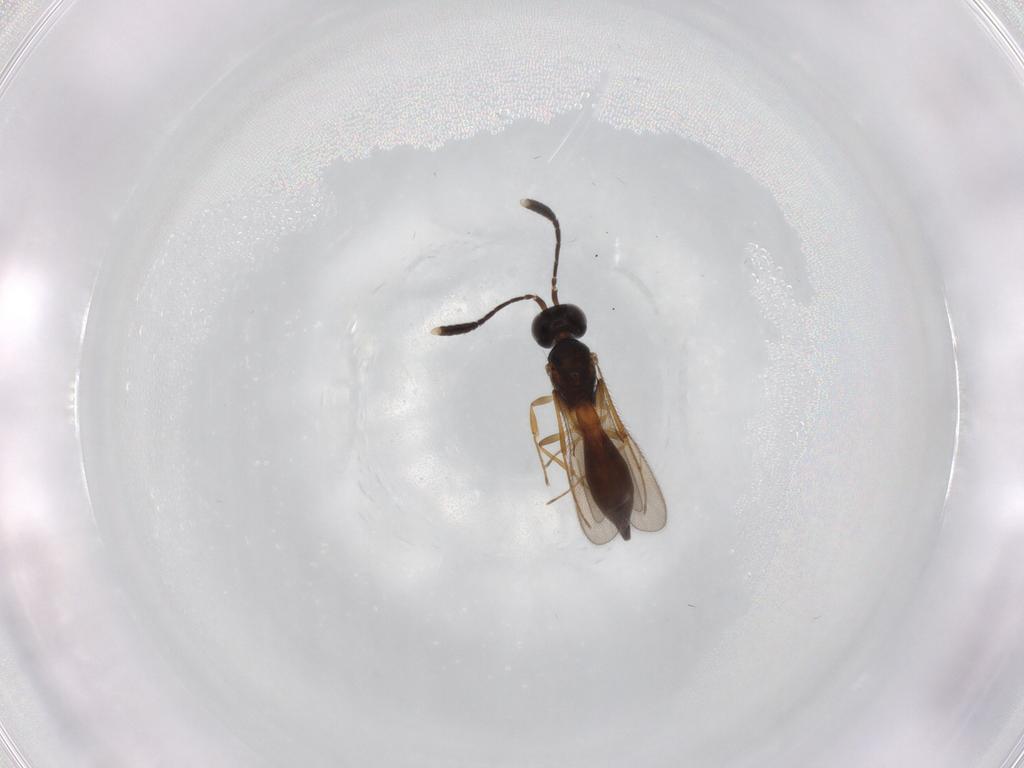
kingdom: Animalia
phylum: Arthropoda
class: Insecta
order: Hymenoptera
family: Scelionidae
